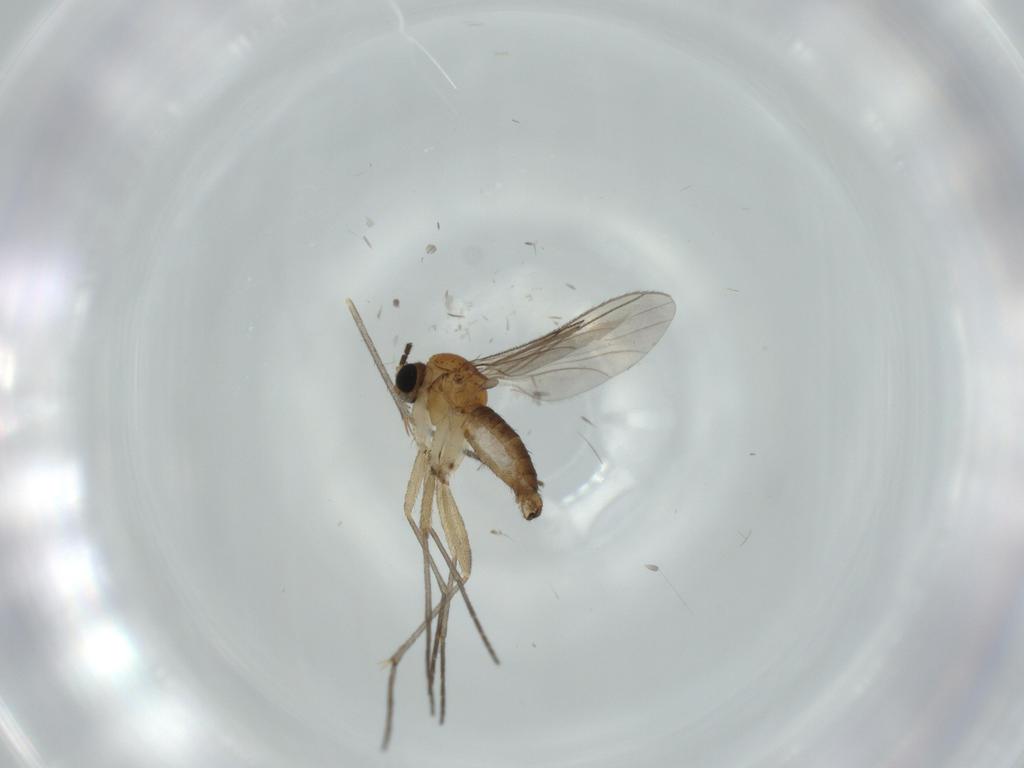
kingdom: Animalia
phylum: Arthropoda
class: Insecta
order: Diptera
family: Sciaridae
